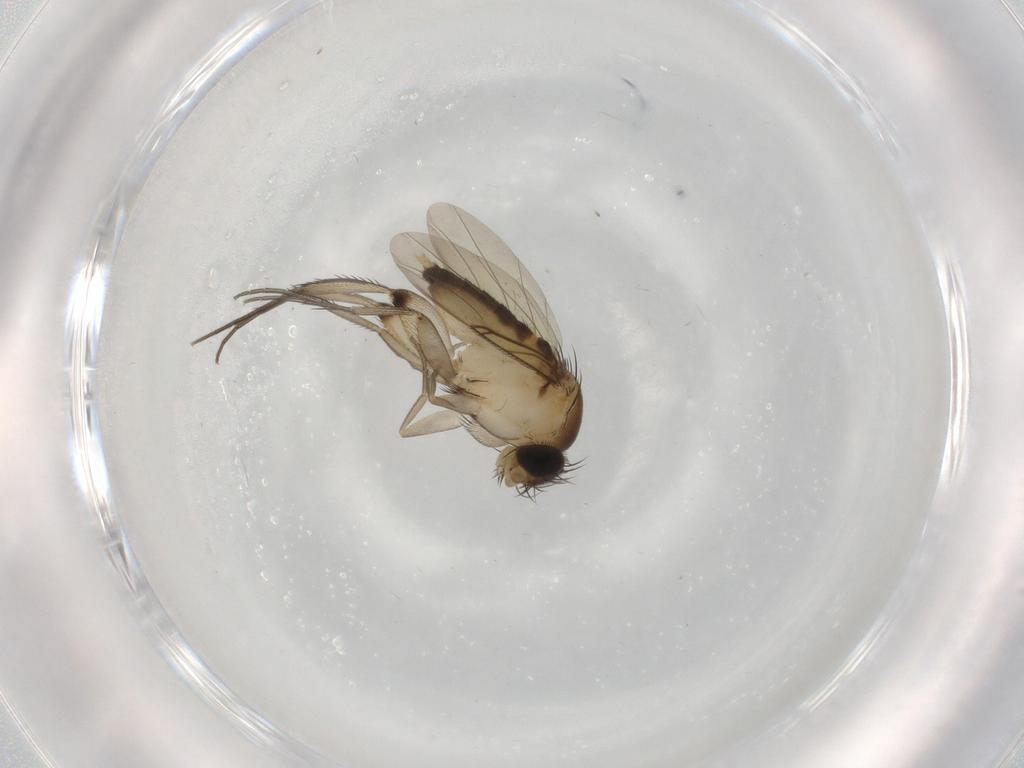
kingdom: Animalia
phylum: Arthropoda
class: Insecta
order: Diptera
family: Phoridae
